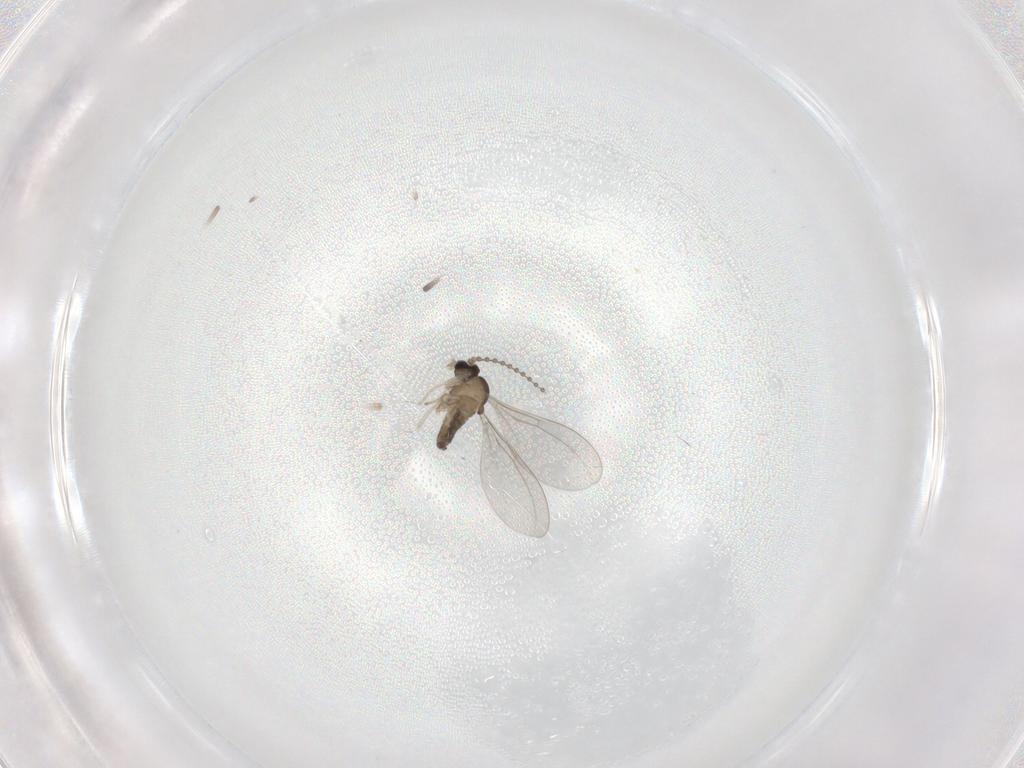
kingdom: Animalia
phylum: Arthropoda
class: Insecta
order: Diptera
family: Cecidomyiidae
